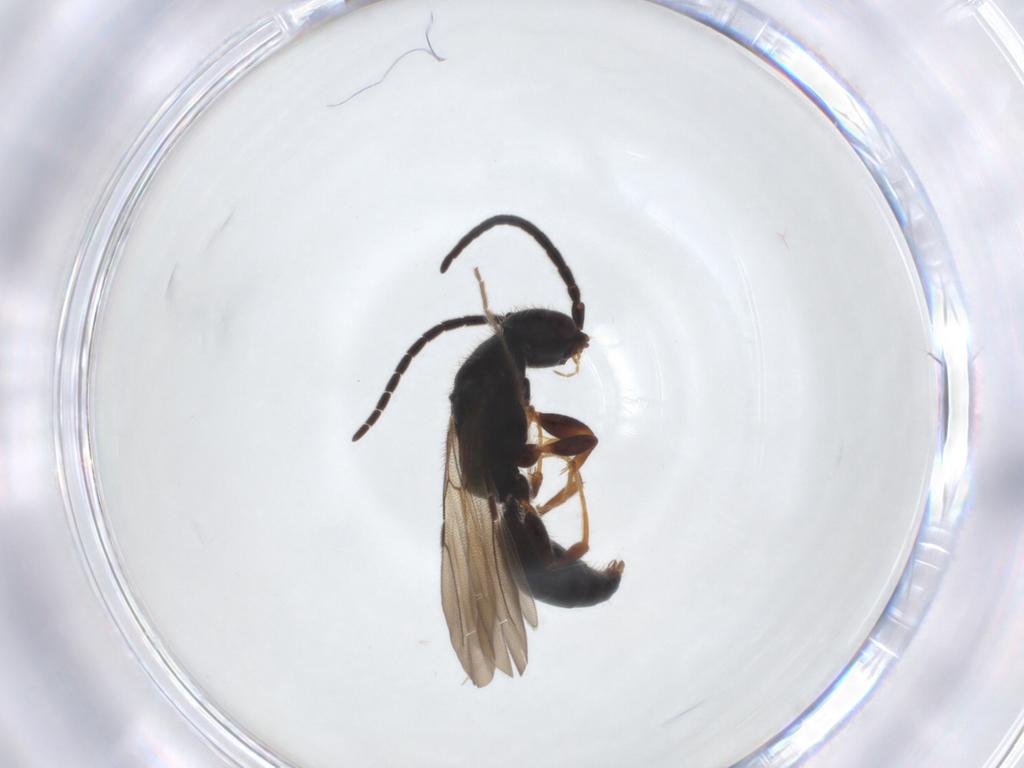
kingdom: Animalia
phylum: Arthropoda
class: Insecta
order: Hymenoptera
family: Bethylidae
